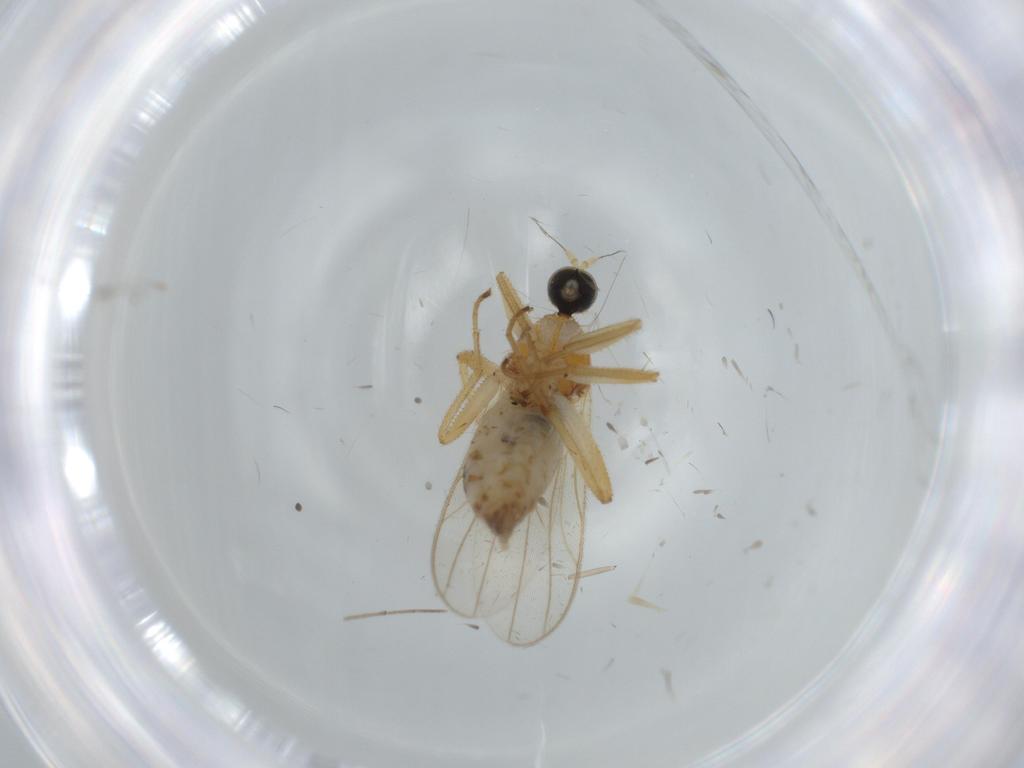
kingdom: Animalia
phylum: Arthropoda
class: Insecta
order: Diptera
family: Hybotidae
